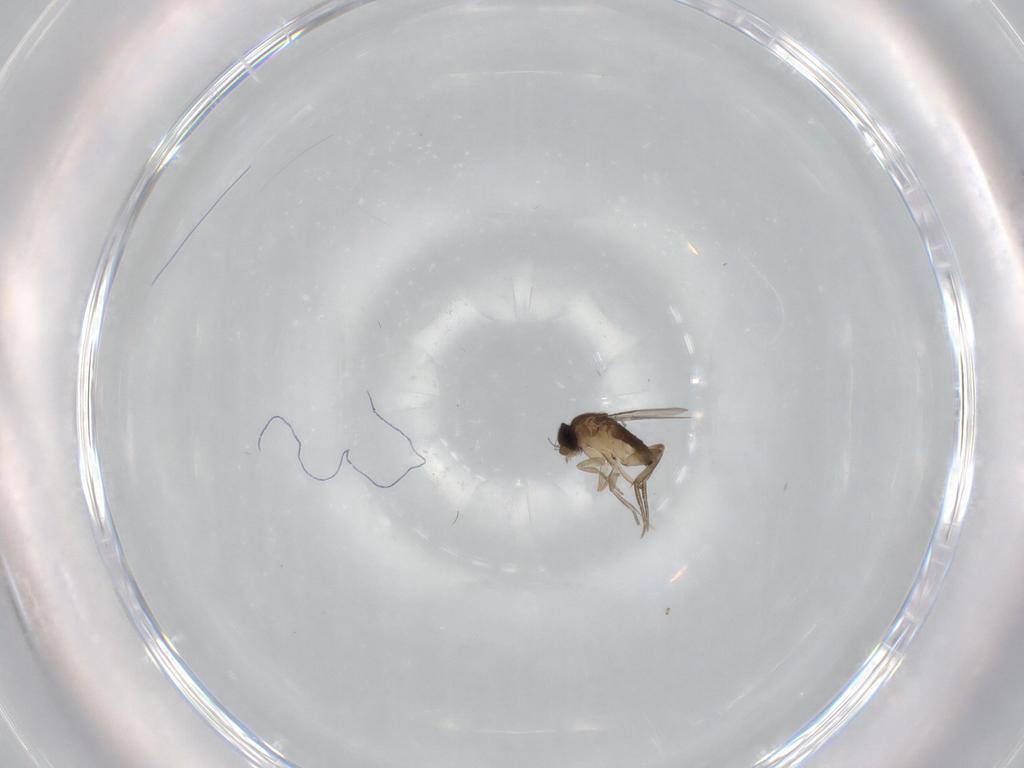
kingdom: Animalia
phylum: Arthropoda
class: Insecta
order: Diptera
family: Phoridae
